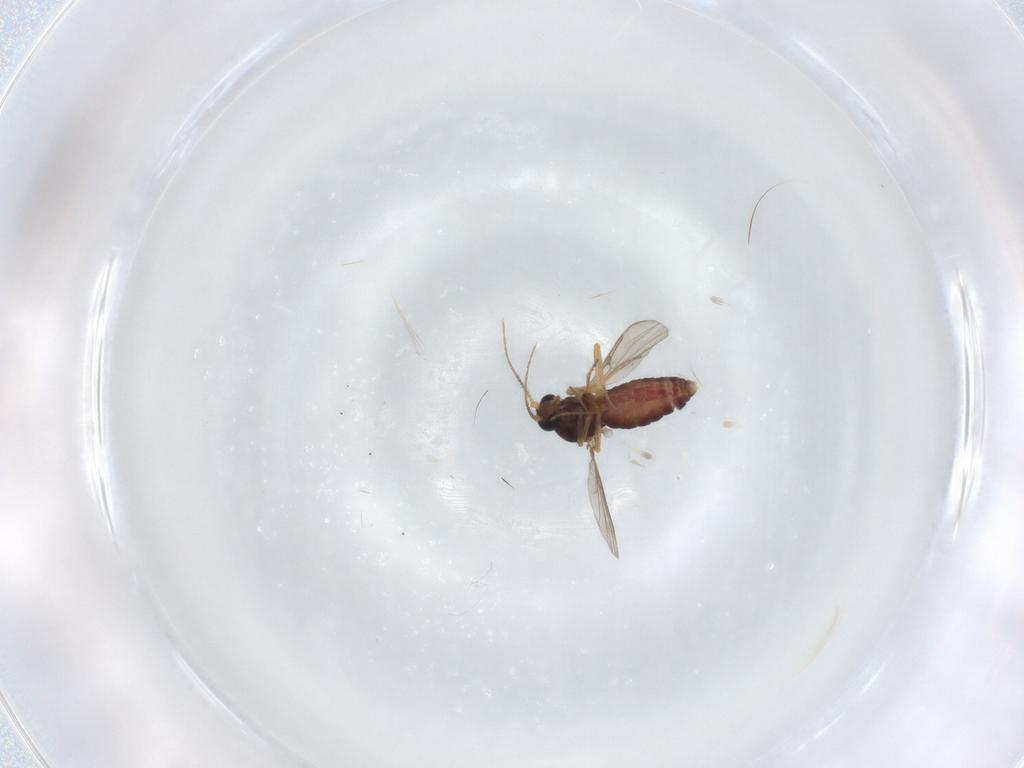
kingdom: Animalia
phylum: Arthropoda
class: Insecta
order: Diptera
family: Ceratopogonidae
